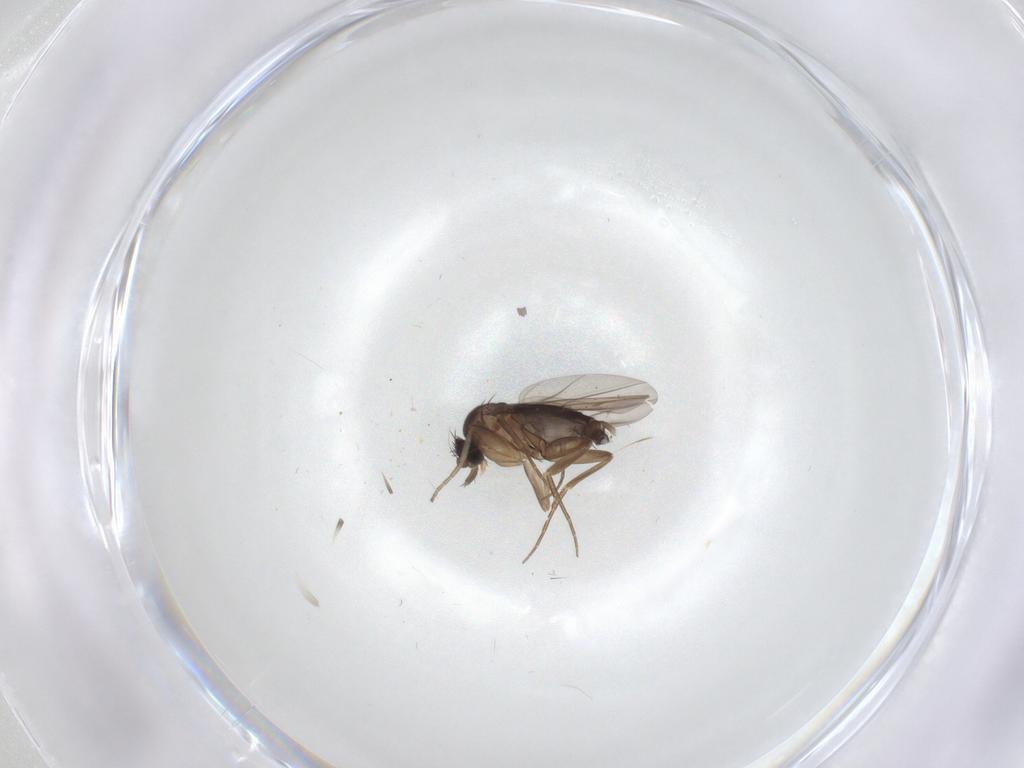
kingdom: Animalia
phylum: Arthropoda
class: Insecta
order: Diptera
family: Phoridae
